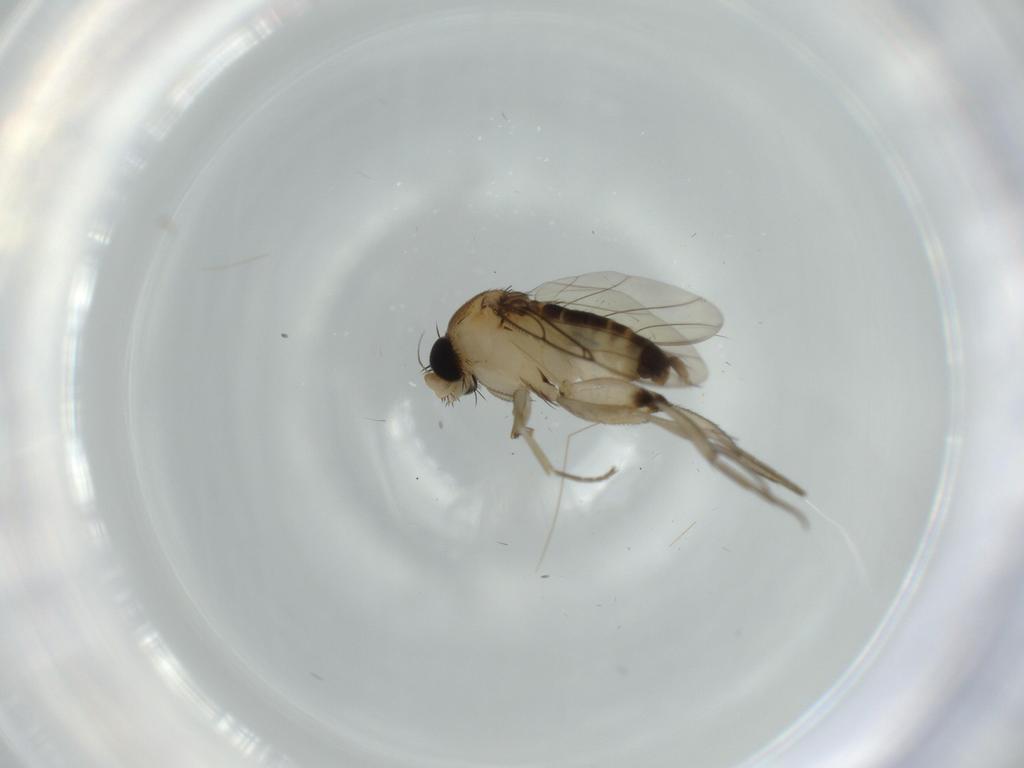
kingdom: Animalia
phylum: Arthropoda
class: Insecta
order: Diptera
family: Phoridae
